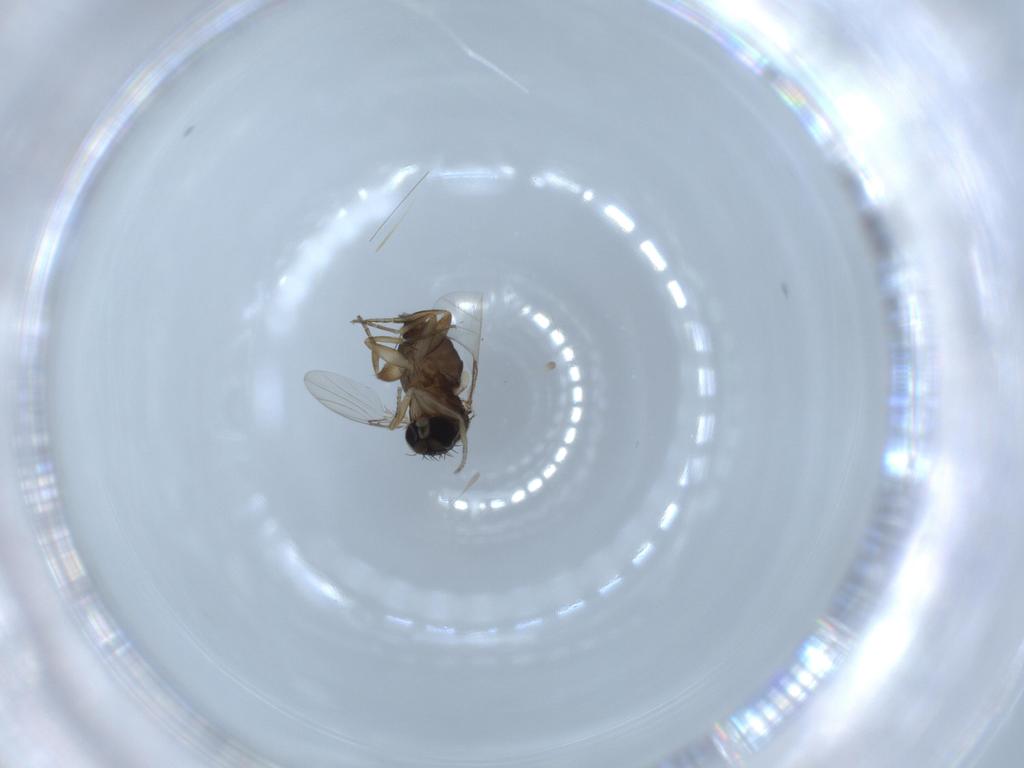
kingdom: Animalia
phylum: Arthropoda
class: Insecta
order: Diptera
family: Phoridae
